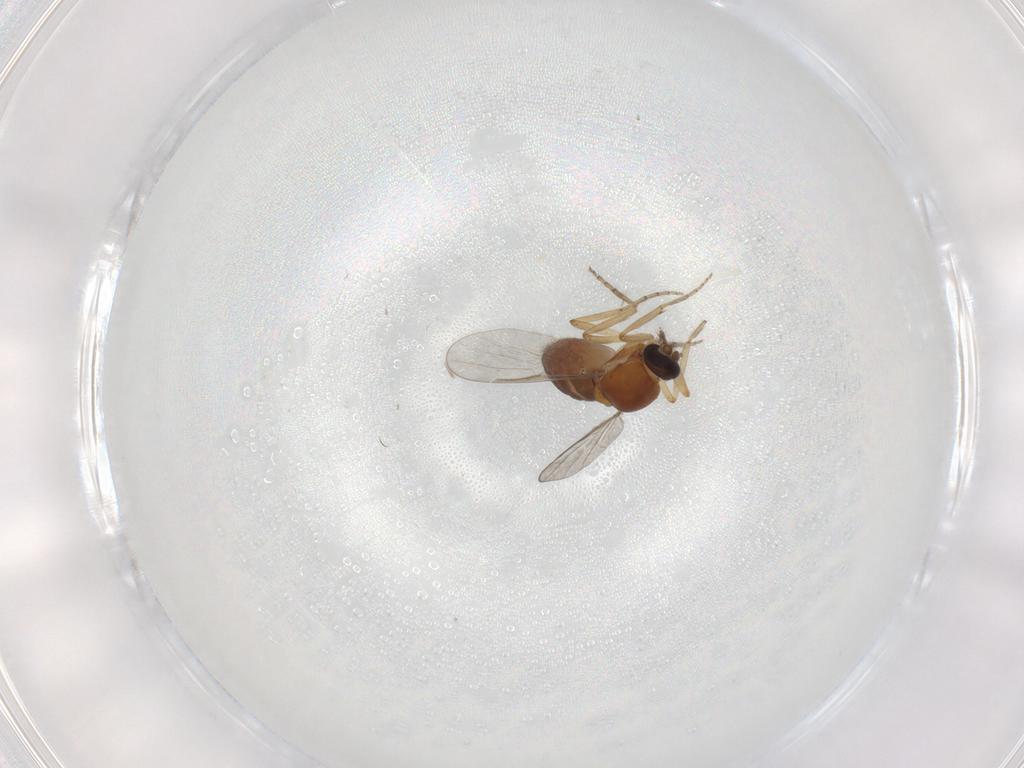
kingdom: Animalia
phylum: Arthropoda
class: Insecta
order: Diptera
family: Ceratopogonidae
